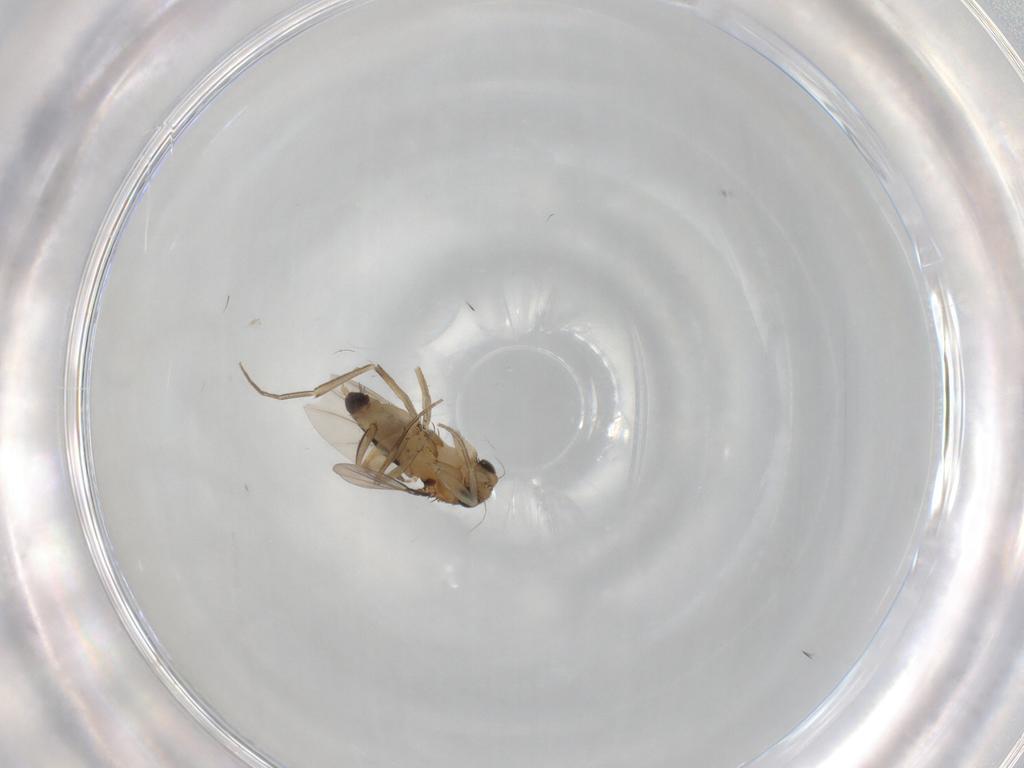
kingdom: Animalia
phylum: Arthropoda
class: Insecta
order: Diptera
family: Phoridae
